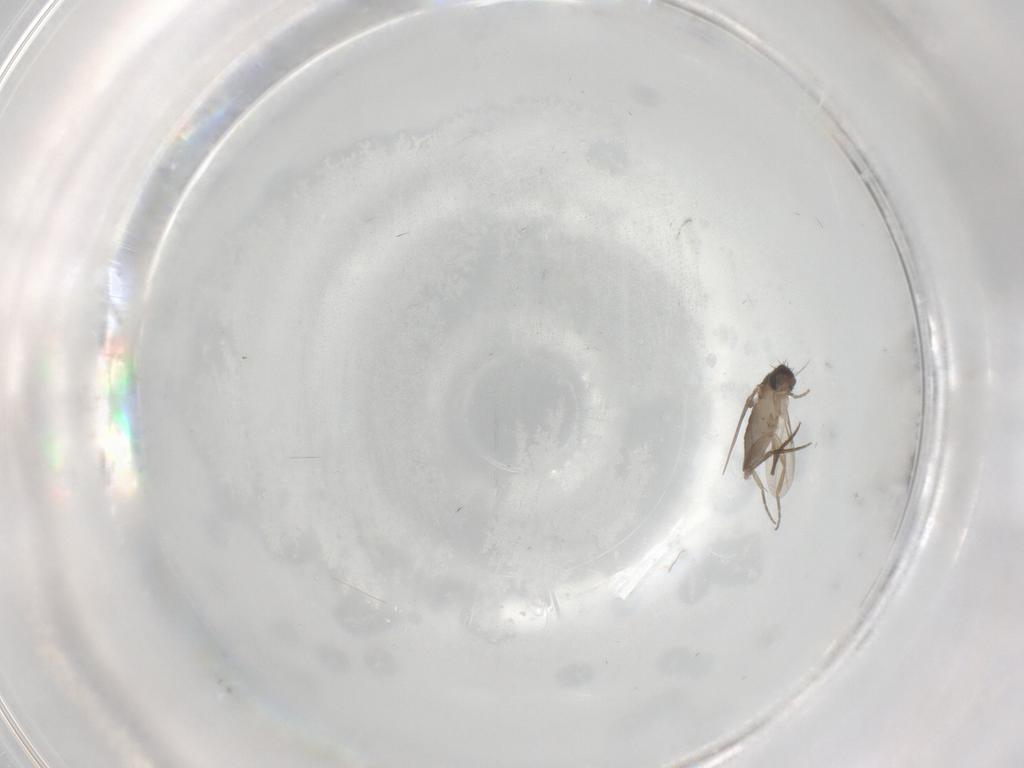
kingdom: Animalia
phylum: Arthropoda
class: Insecta
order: Diptera
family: Phoridae
